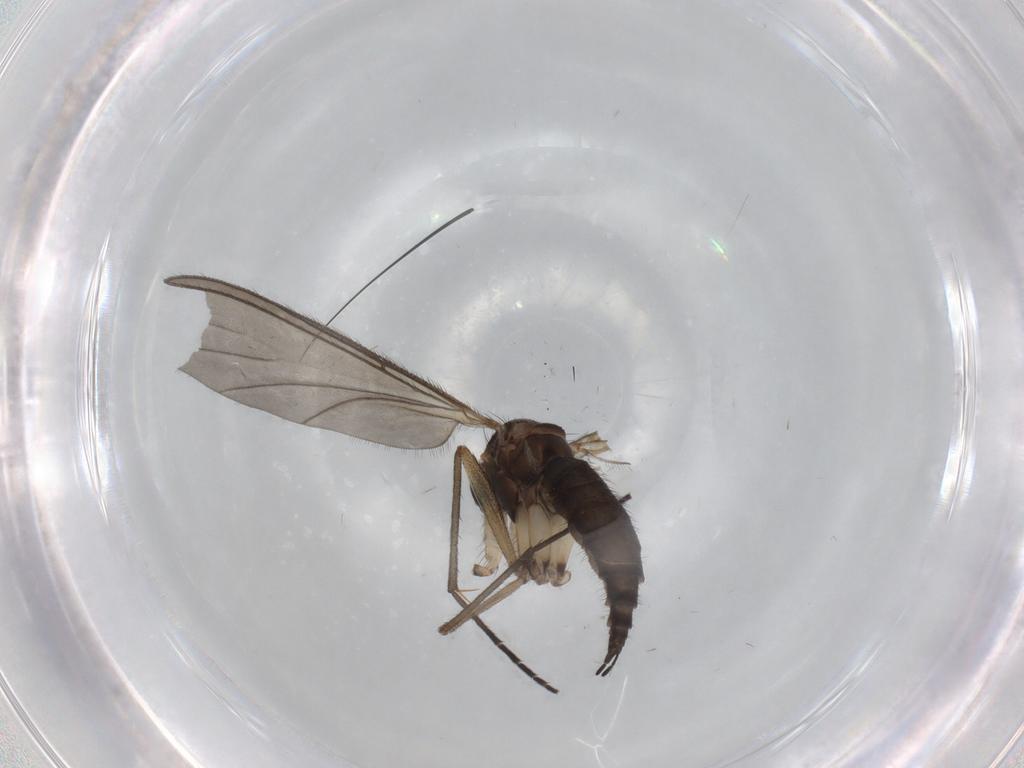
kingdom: Animalia
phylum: Arthropoda
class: Insecta
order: Diptera
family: Sciaridae
